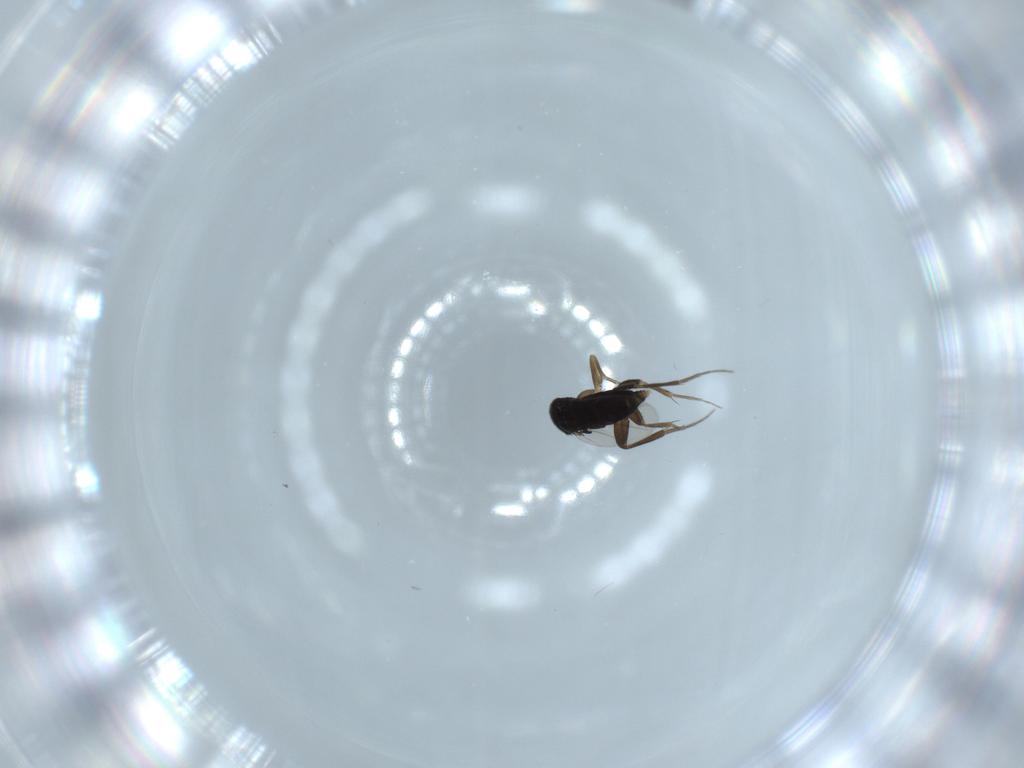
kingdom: Animalia
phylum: Arthropoda
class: Insecta
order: Diptera
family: Phoridae
